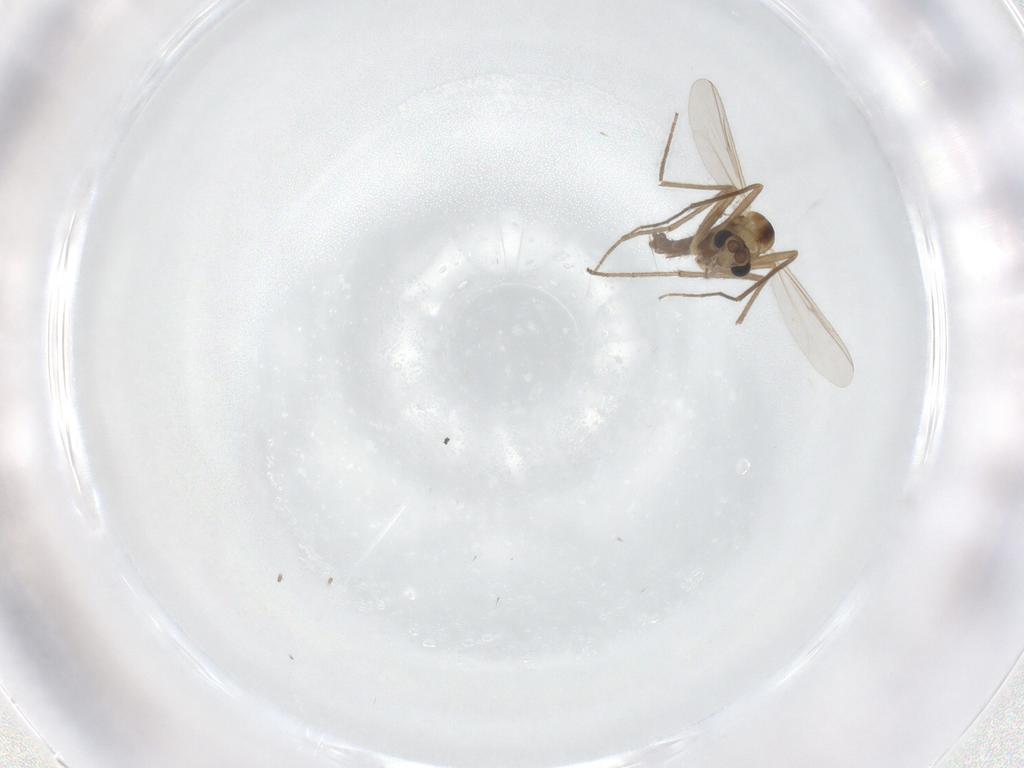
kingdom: Animalia
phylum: Arthropoda
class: Insecta
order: Diptera
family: Chironomidae
